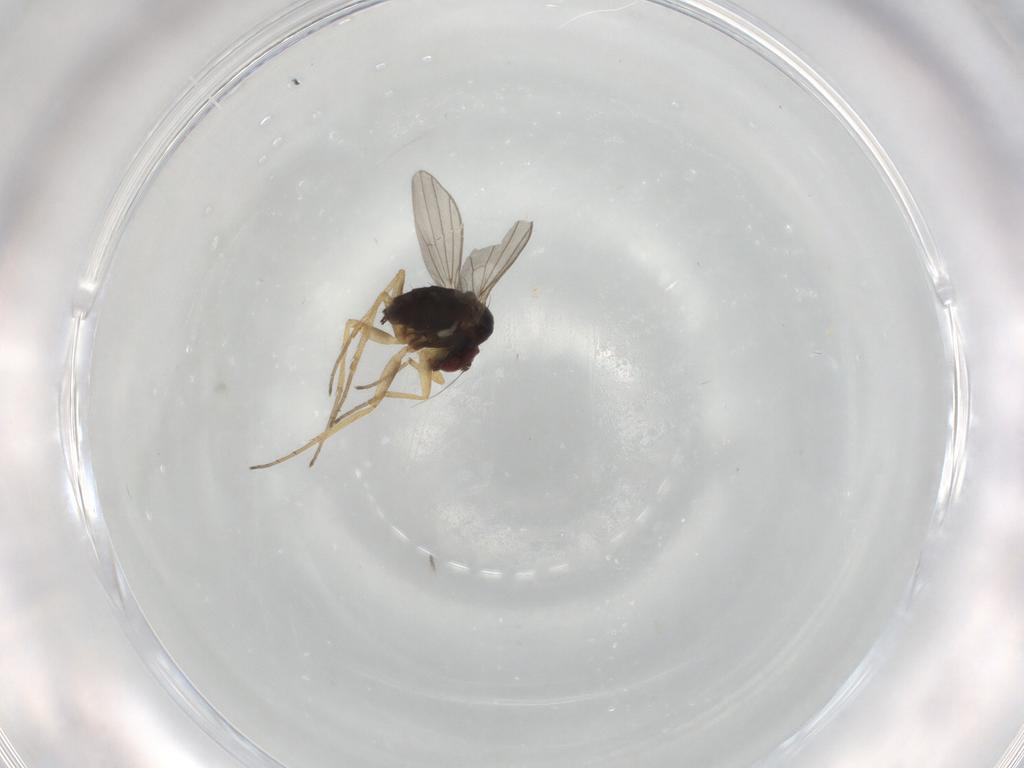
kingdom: Animalia
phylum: Arthropoda
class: Insecta
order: Diptera
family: Dolichopodidae
